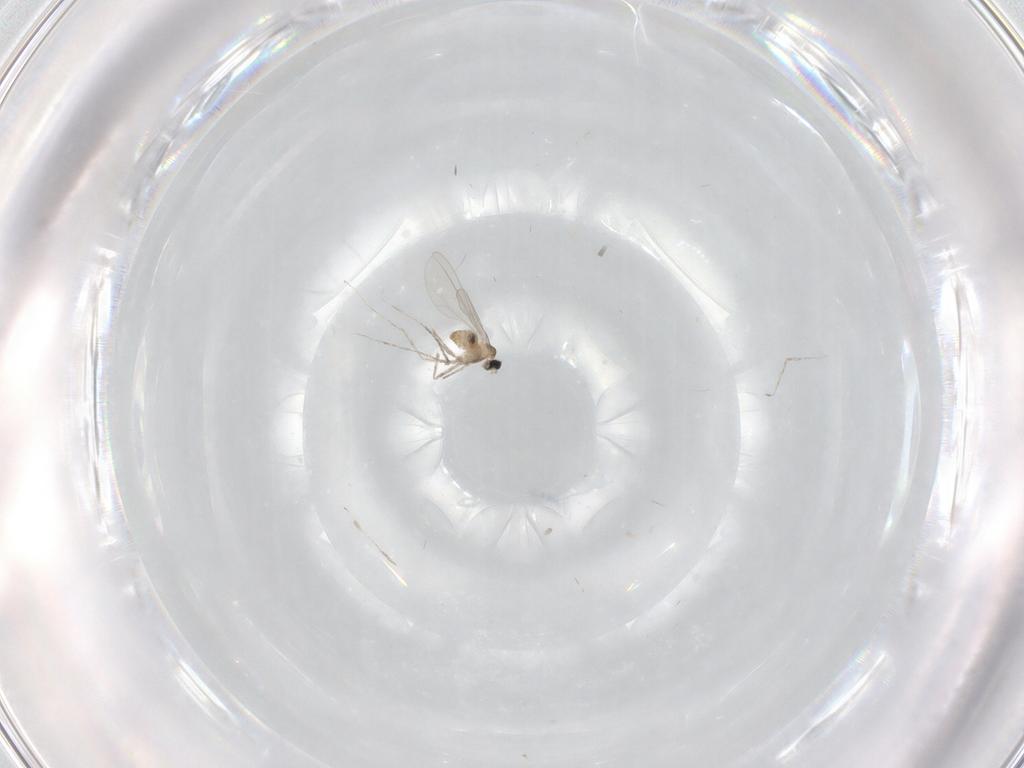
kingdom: Animalia
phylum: Arthropoda
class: Insecta
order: Diptera
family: Cecidomyiidae
